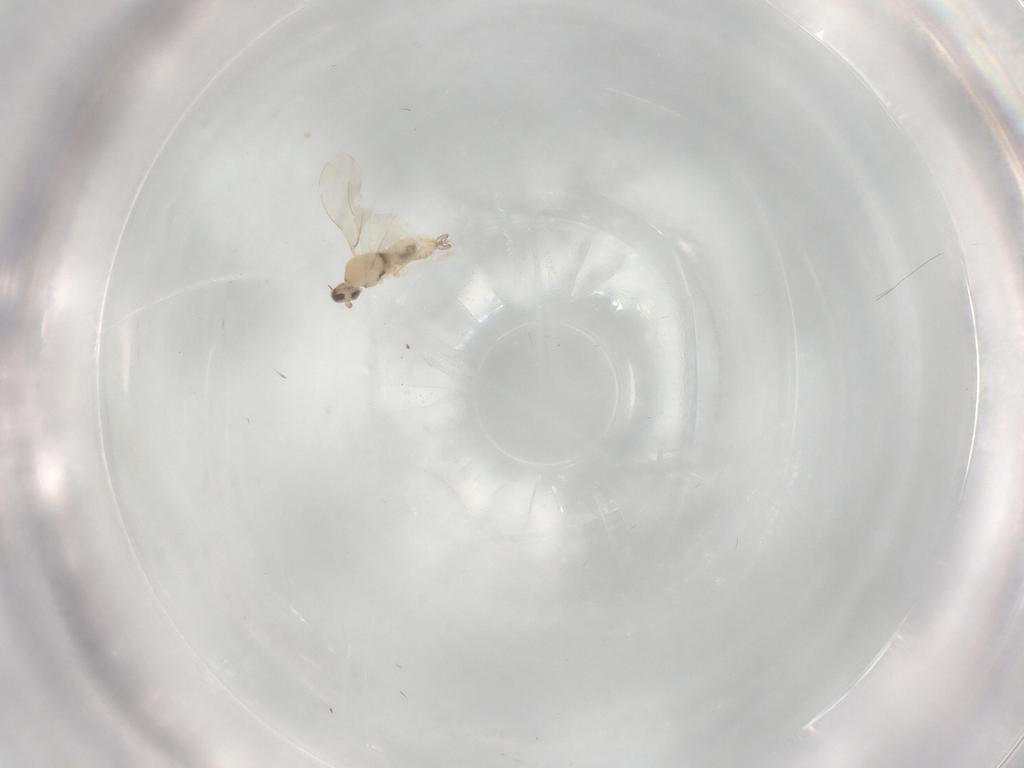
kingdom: Animalia
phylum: Arthropoda
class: Insecta
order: Diptera
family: Cecidomyiidae
